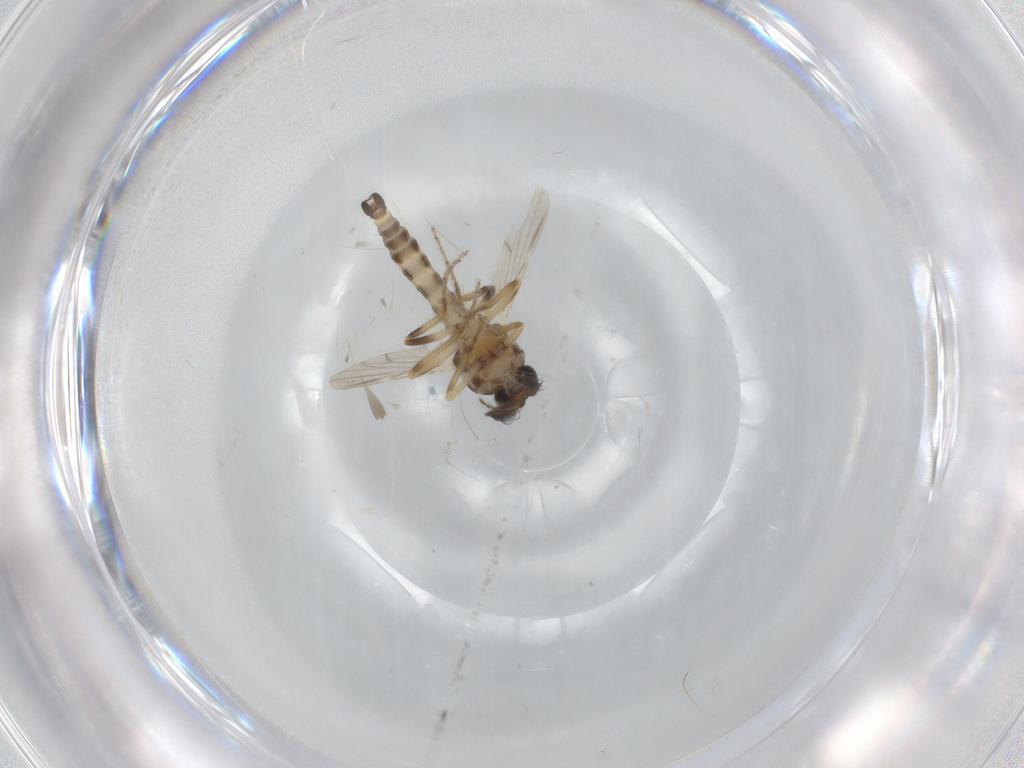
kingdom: Animalia
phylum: Arthropoda
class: Insecta
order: Diptera
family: Ceratopogonidae
